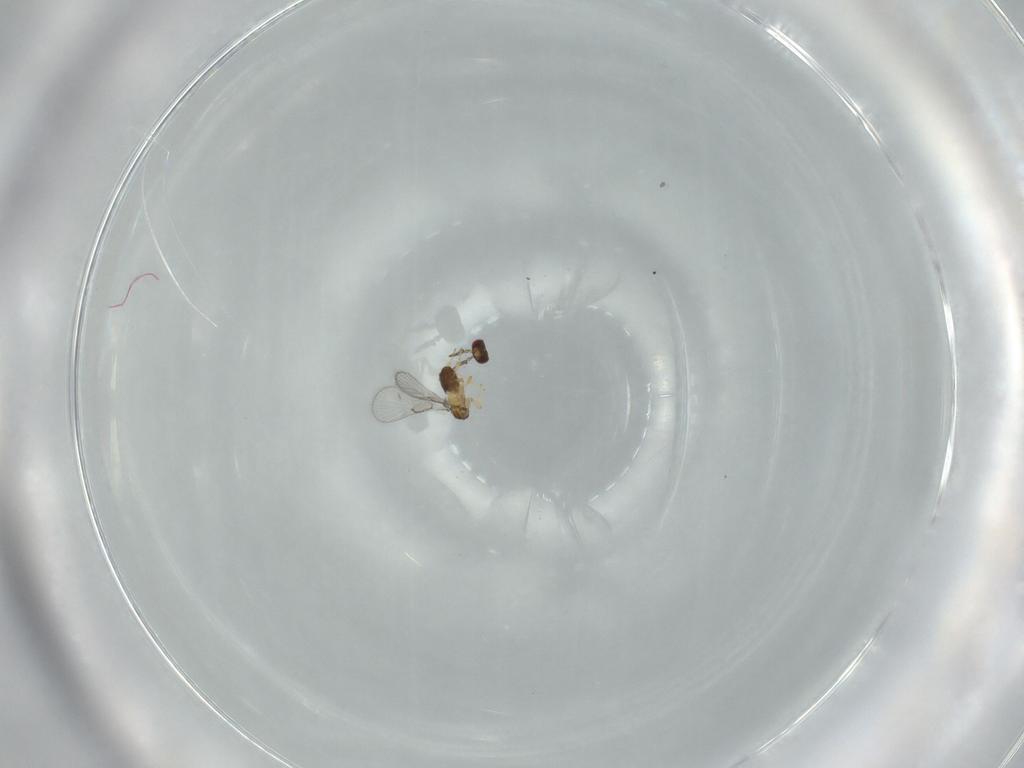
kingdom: Animalia
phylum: Arthropoda
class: Insecta
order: Hymenoptera
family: Trichogrammatidae
